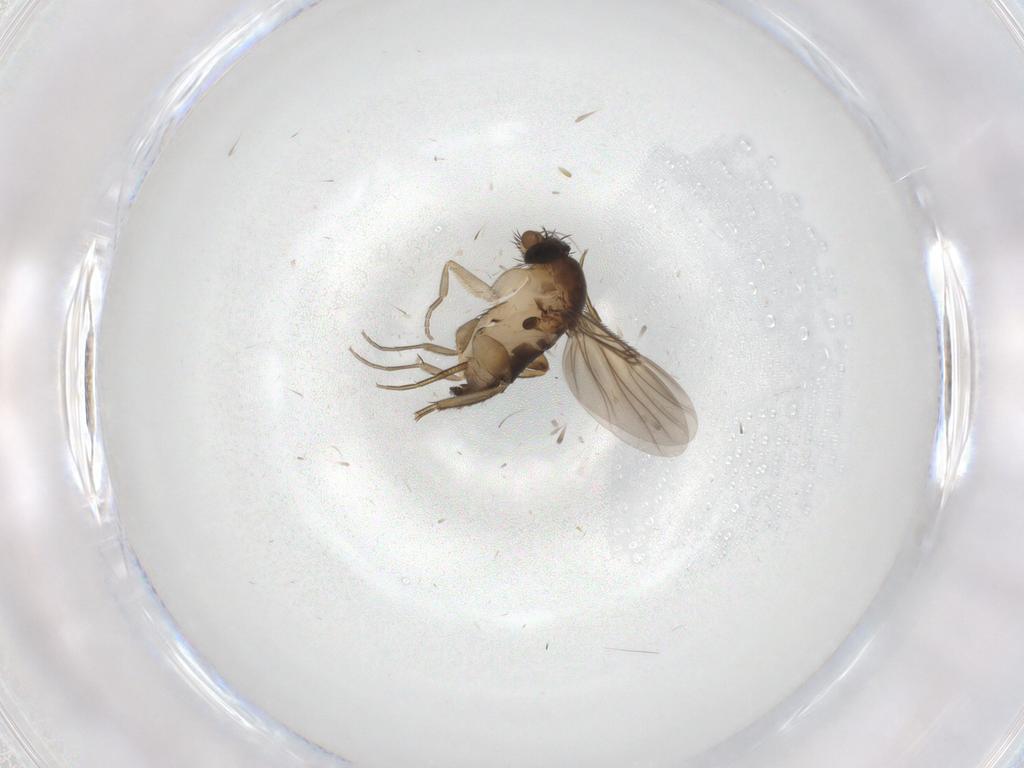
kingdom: Animalia
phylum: Arthropoda
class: Insecta
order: Diptera
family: Phoridae
